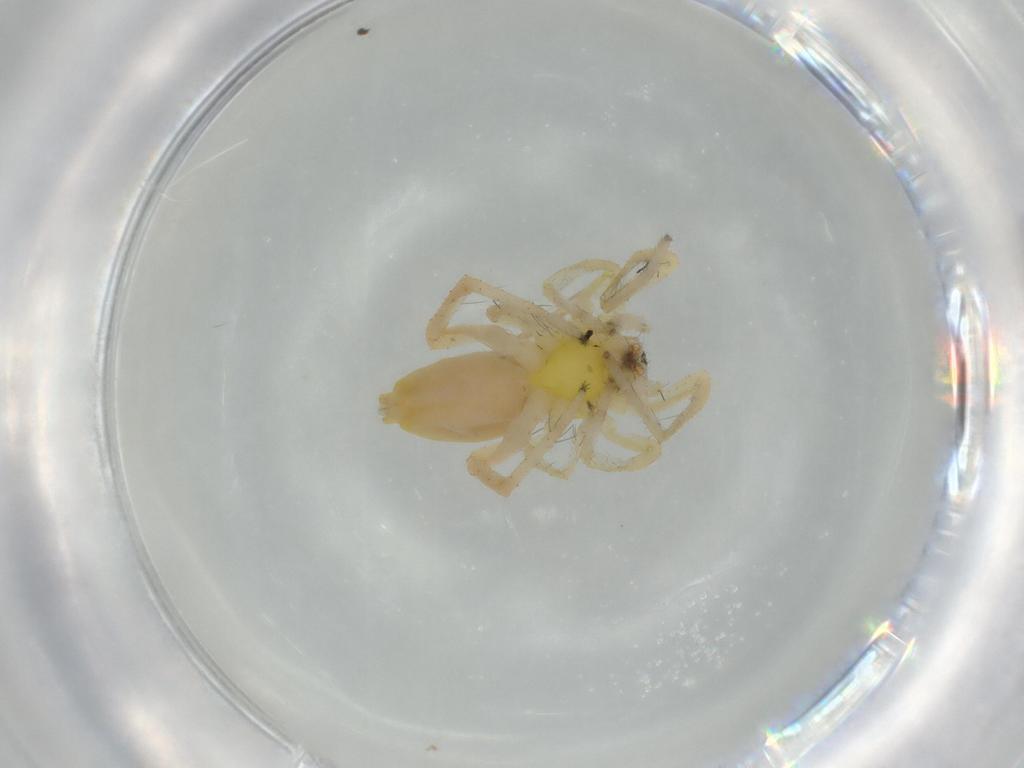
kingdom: Animalia
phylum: Arthropoda
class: Arachnida
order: Araneae
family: Anyphaenidae
